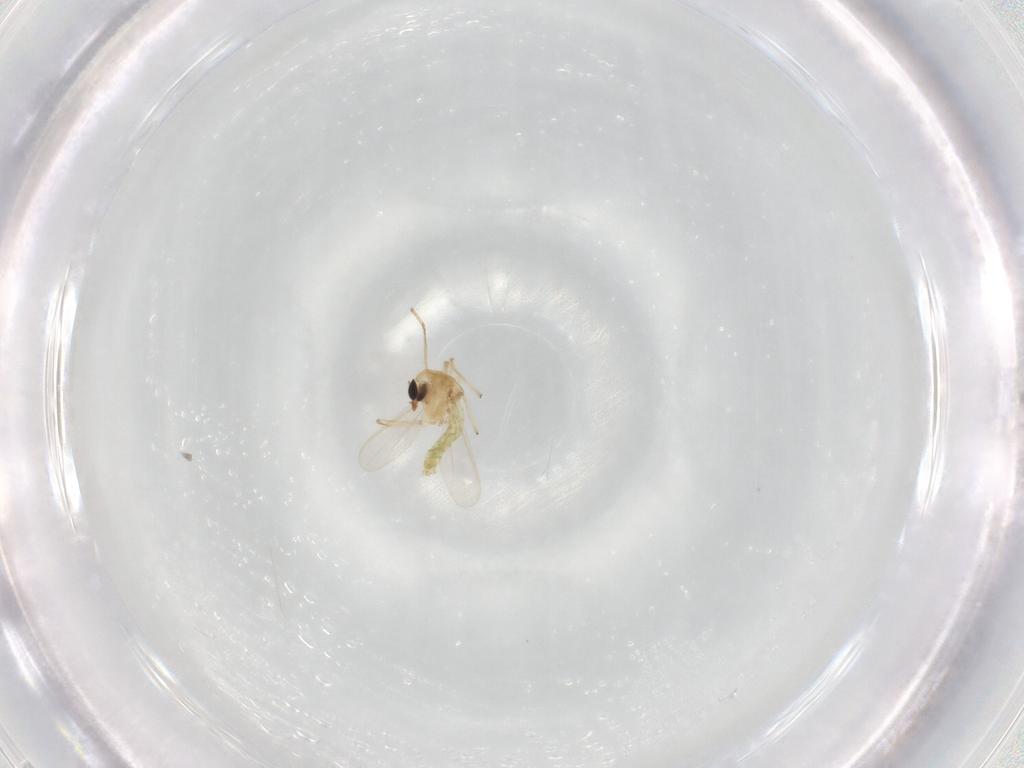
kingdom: Animalia
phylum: Arthropoda
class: Insecta
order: Diptera
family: Chironomidae
